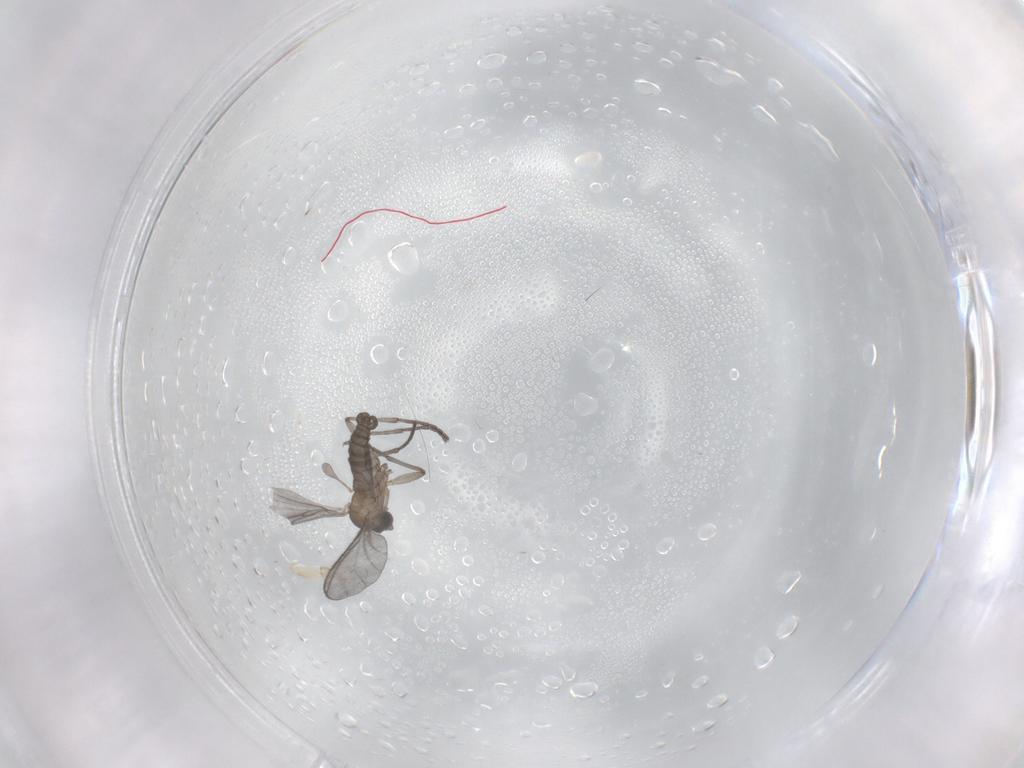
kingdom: Animalia
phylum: Arthropoda
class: Insecta
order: Diptera
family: Sciaridae
